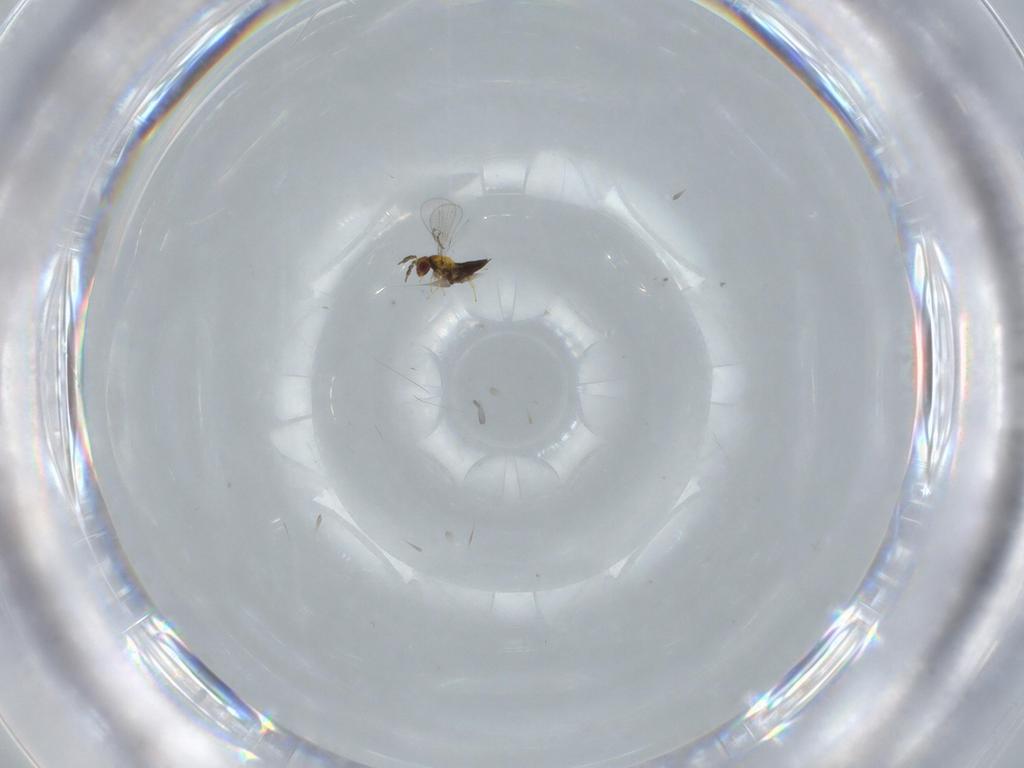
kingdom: Animalia
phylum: Arthropoda
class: Insecta
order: Hymenoptera
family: Trichogrammatidae
